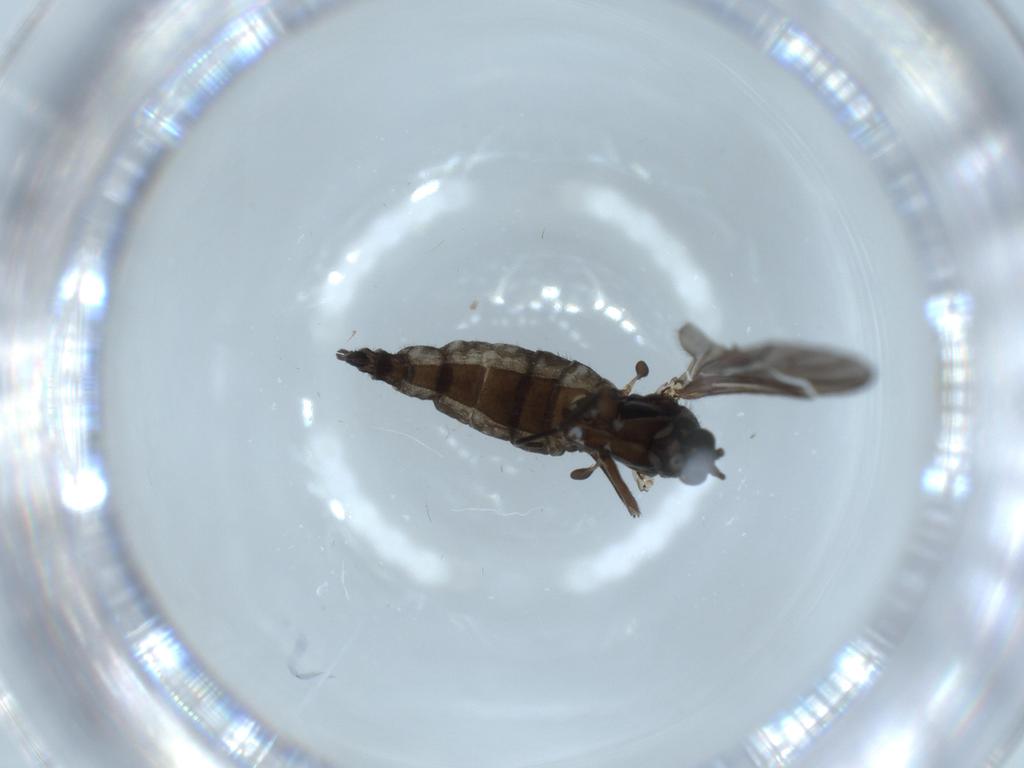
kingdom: Animalia
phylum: Arthropoda
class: Insecta
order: Diptera
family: Sciaridae
